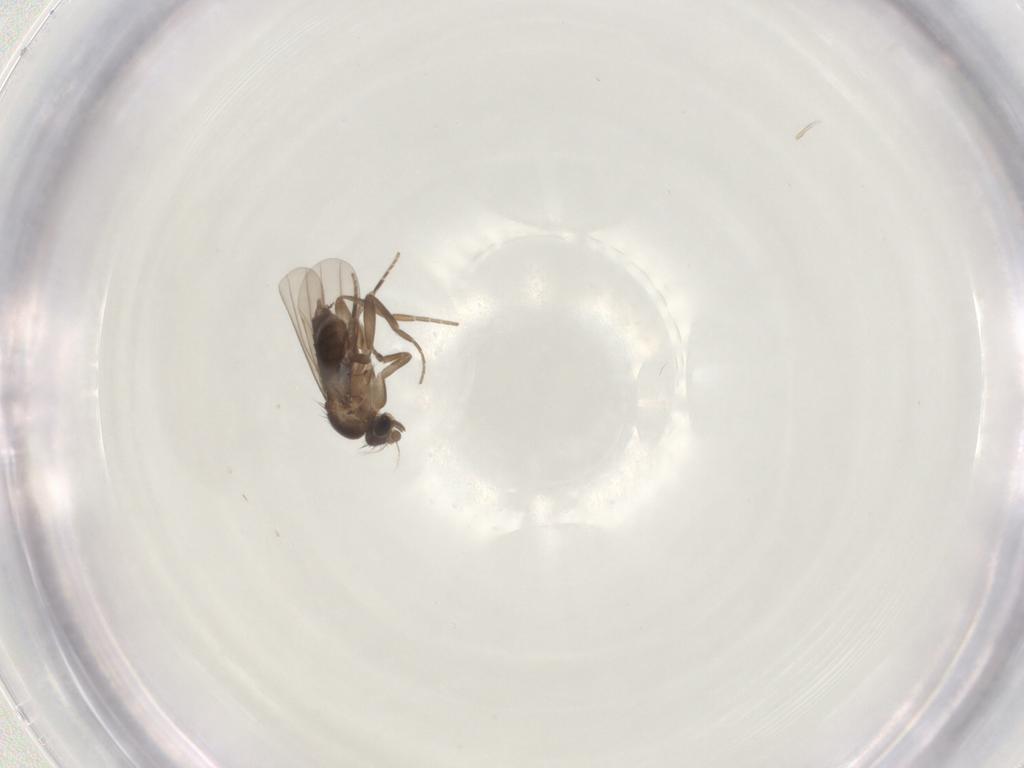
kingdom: Animalia
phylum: Arthropoda
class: Insecta
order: Diptera
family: Phoridae
